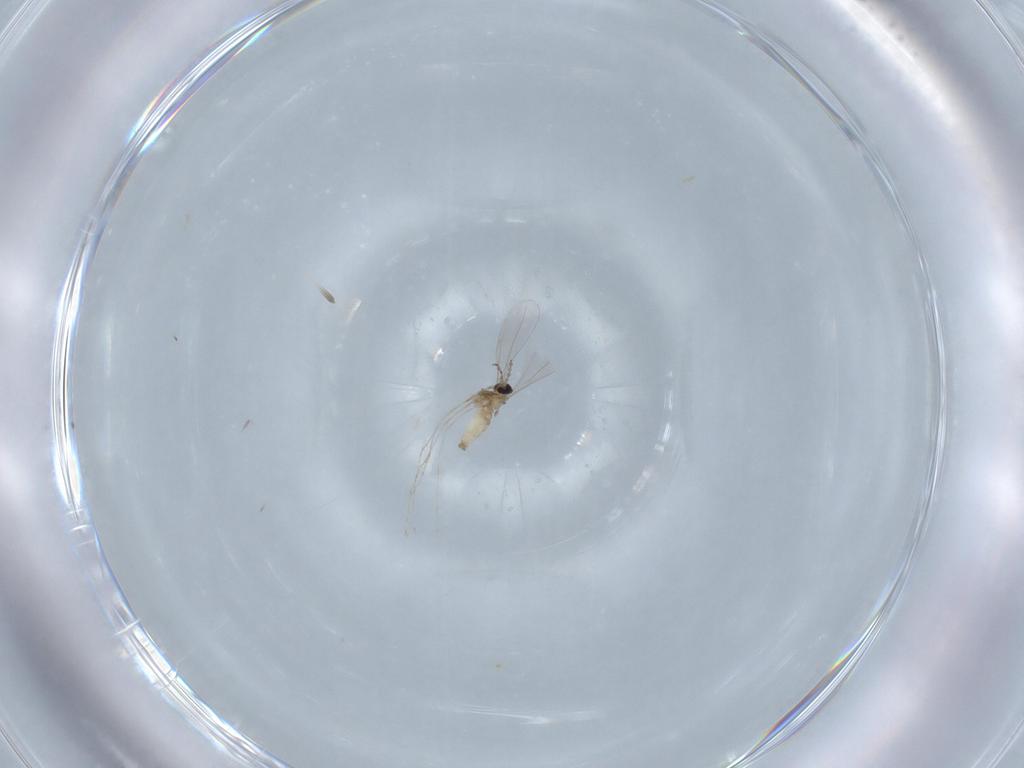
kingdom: Animalia
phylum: Arthropoda
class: Insecta
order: Diptera
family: Cecidomyiidae
